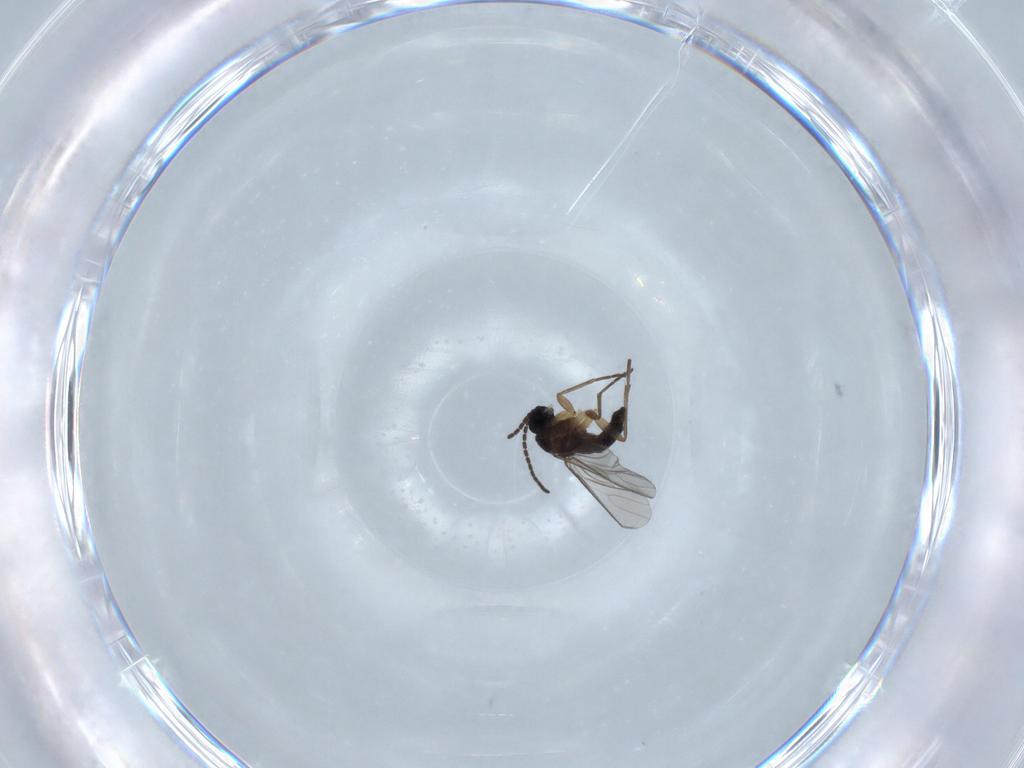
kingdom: Animalia
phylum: Arthropoda
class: Insecta
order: Diptera
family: Sciaridae
